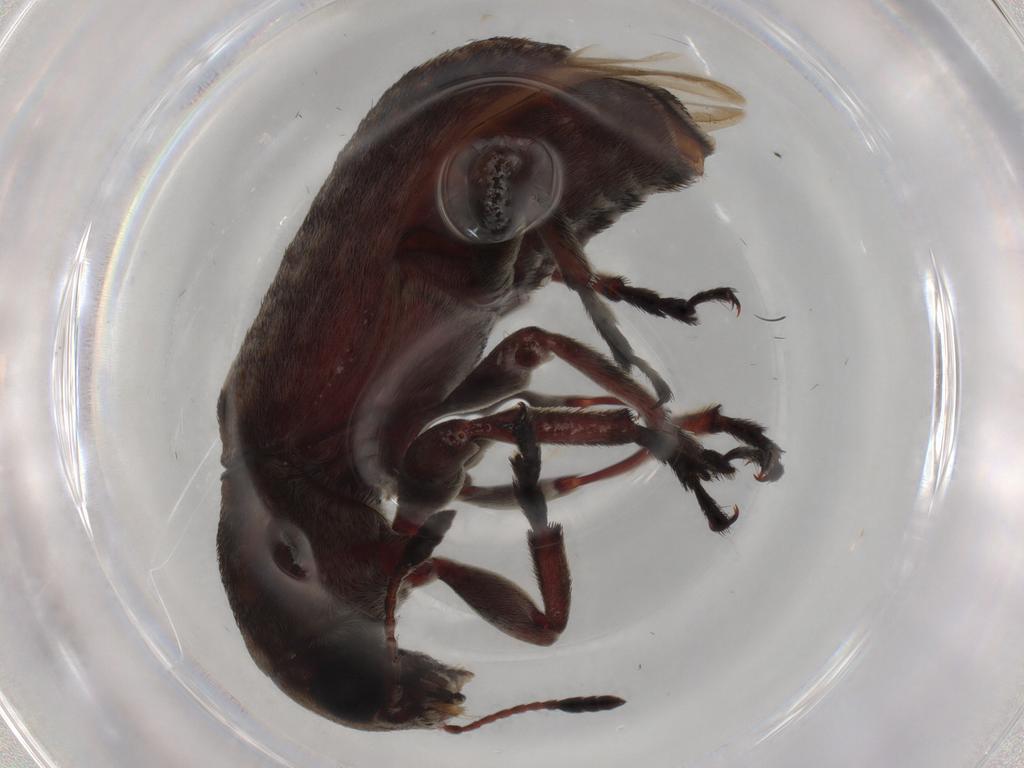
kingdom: Animalia
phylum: Arthropoda
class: Insecta
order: Coleoptera
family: Anthribidae
